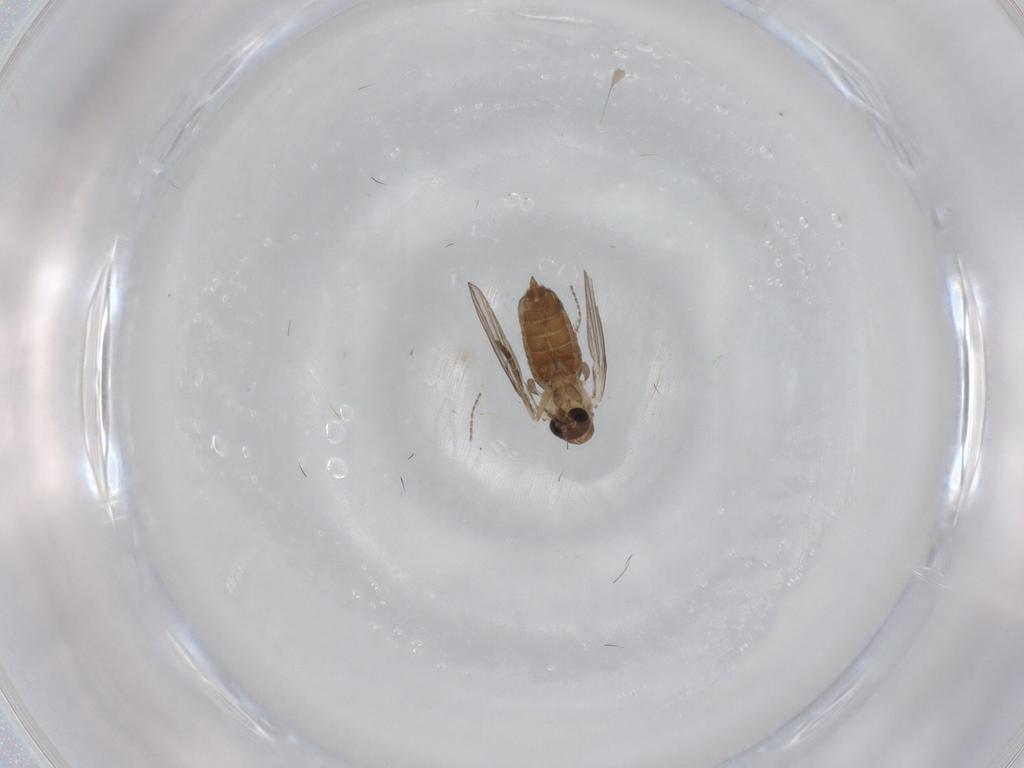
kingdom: Animalia
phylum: Arthropoda
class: Insecta
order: Diptera
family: Psychodidae
